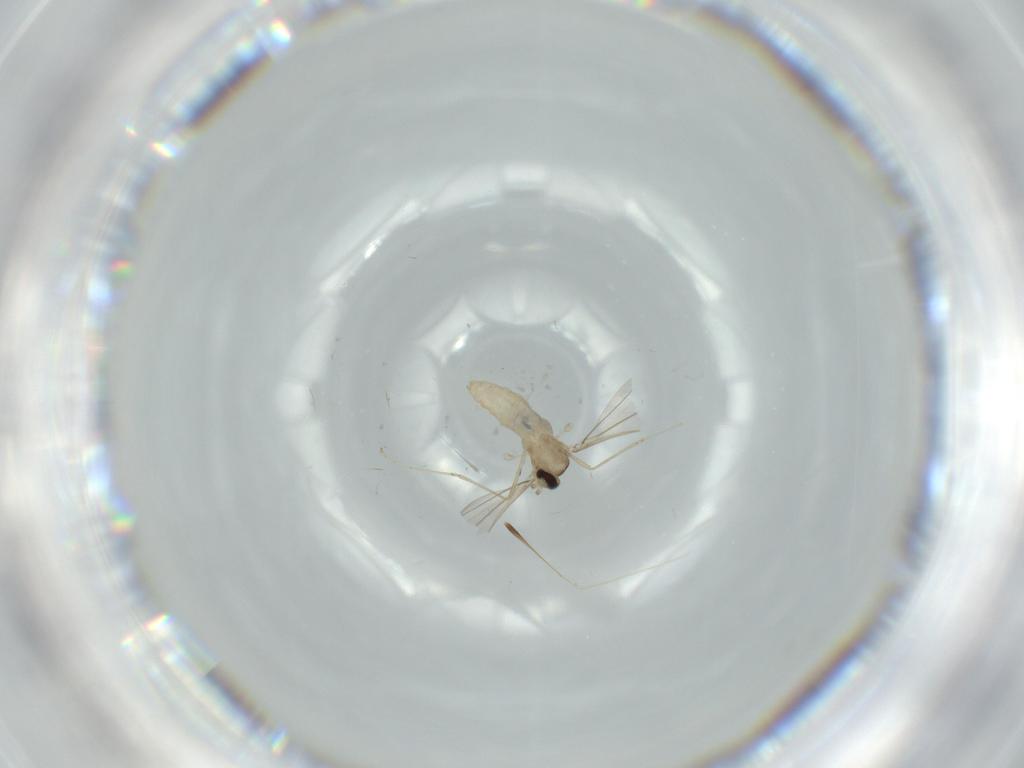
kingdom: Animalia
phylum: Arthropoda
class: Insecta
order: Diptera
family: Cecidomyiidae
